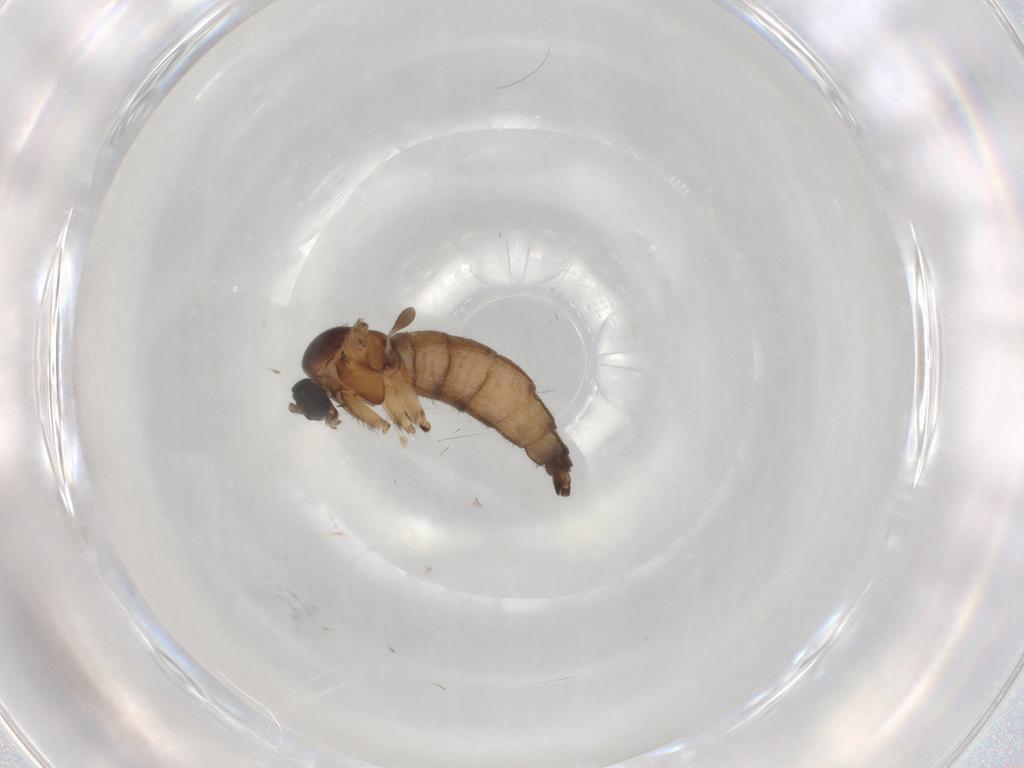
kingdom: Animalia
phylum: Arthropoda
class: Insecta
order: Diptera
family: Sciaridae
